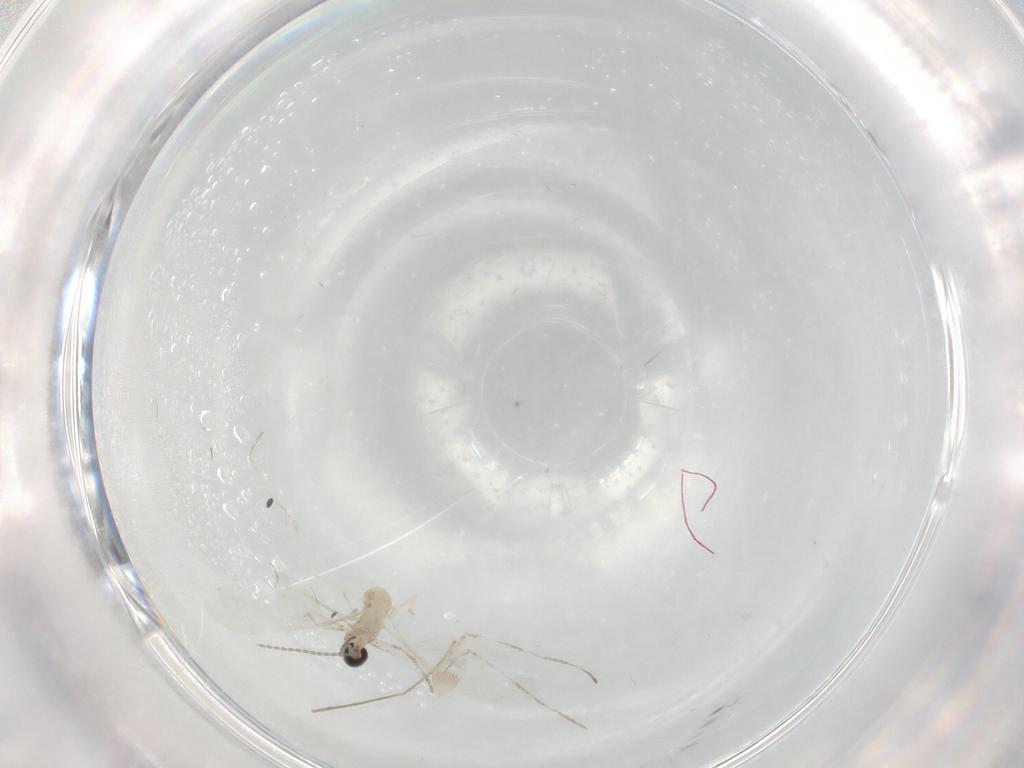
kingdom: Animalia
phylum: Arthropoda
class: Insecta
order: Diptera
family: Cecidomyiidae
